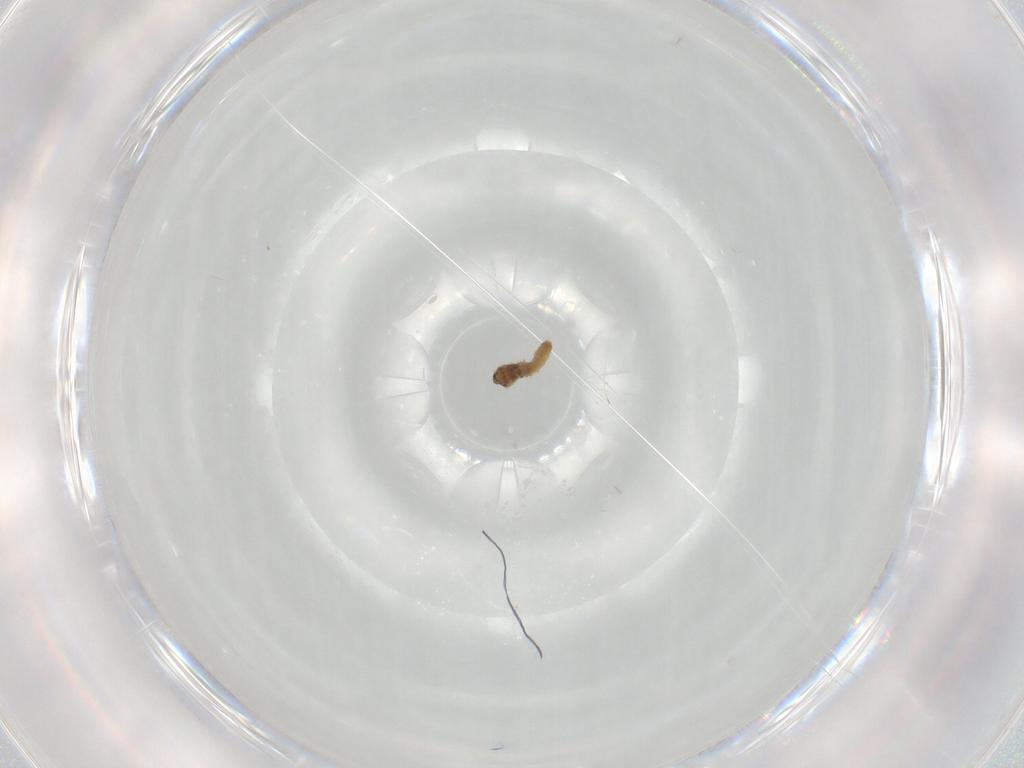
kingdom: Animalia
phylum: Arthropoda
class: Insecta
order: Diptera
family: Cecidomyiidae
